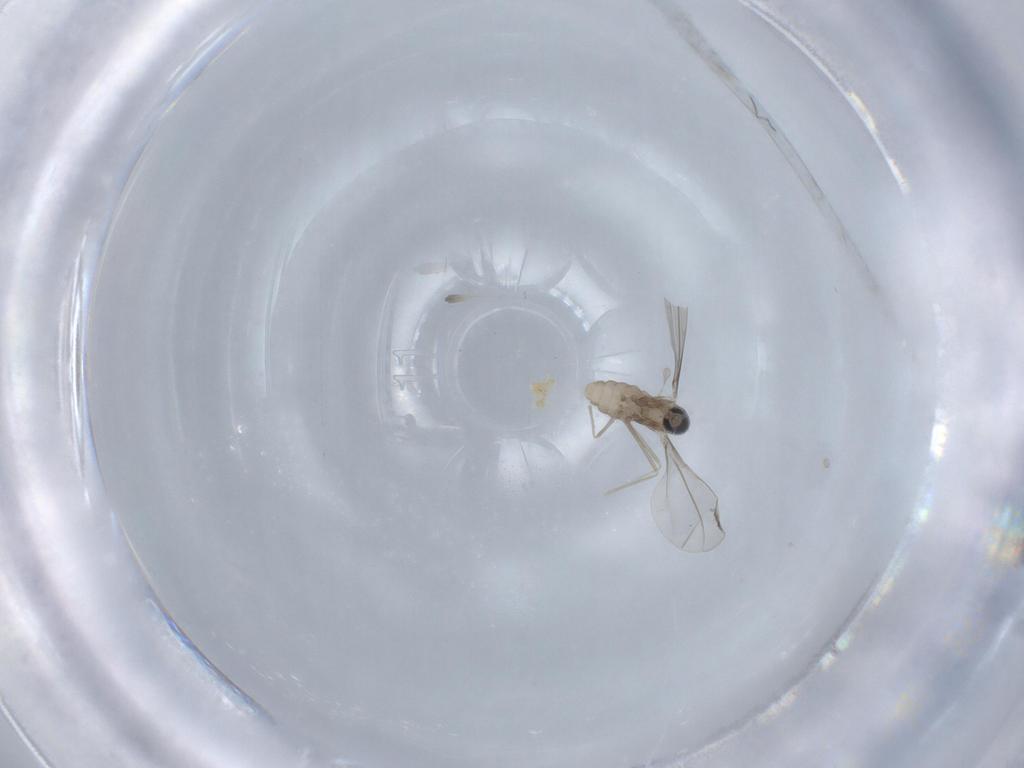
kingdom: Animalia
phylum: Arthropoda
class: Insecta
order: Diptera
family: Cecidomyiidae
